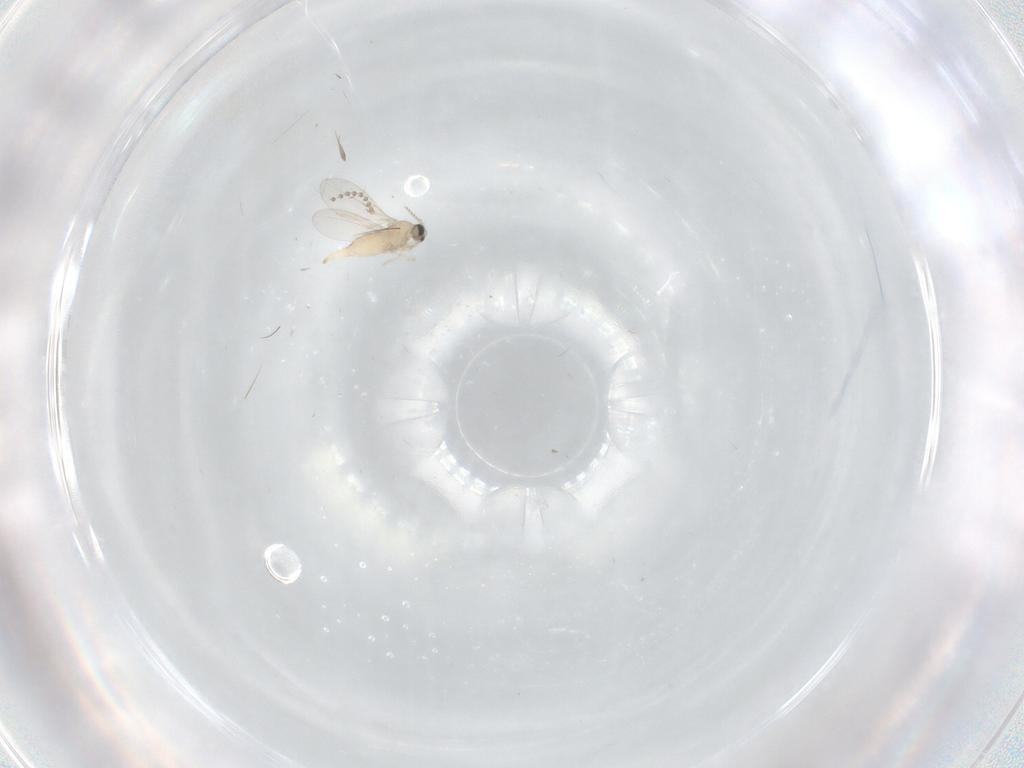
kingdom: Animalia
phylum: Arthropoda
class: Insecta
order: Diptera
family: Cecidomyiidae
